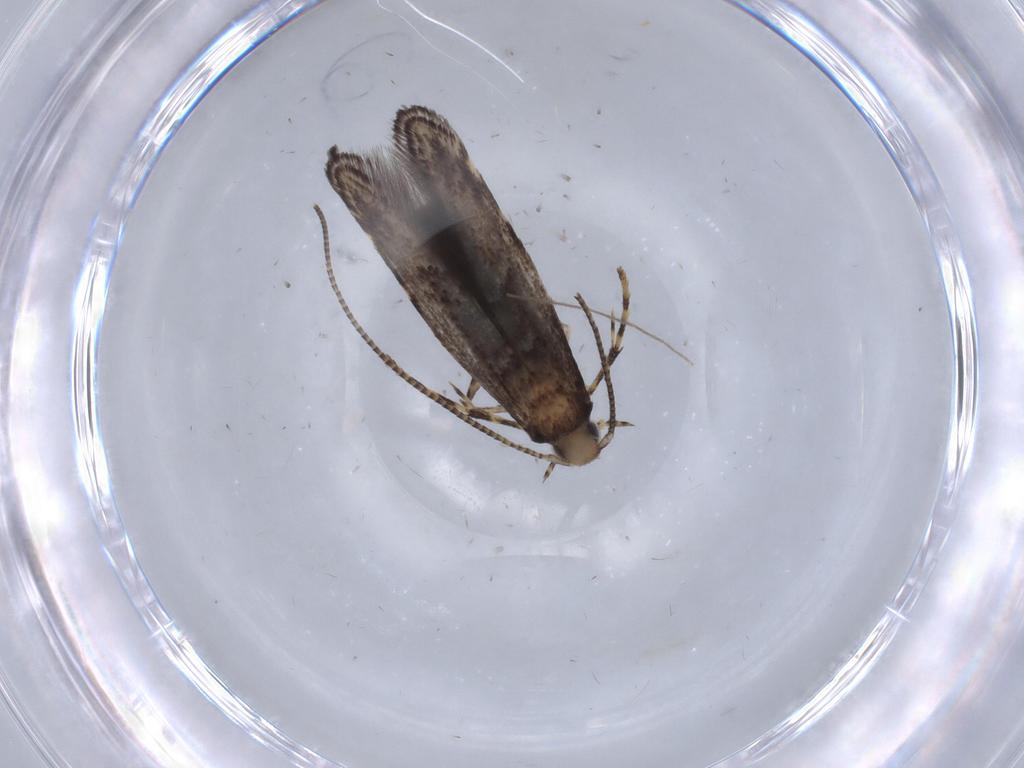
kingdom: Animalia
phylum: Arthropoda
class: Insecta
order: Lepidoptera
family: Gracillariidae
